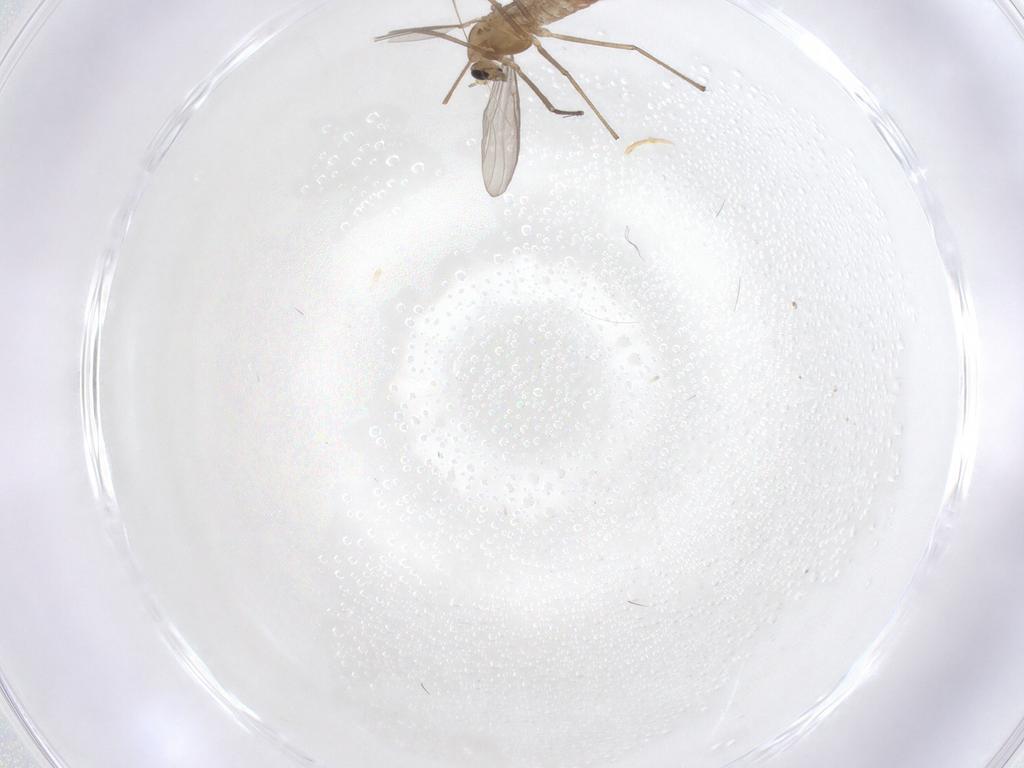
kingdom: Animalia
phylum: Arthropoda
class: Insecta
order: Diptera
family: Chironomidae
